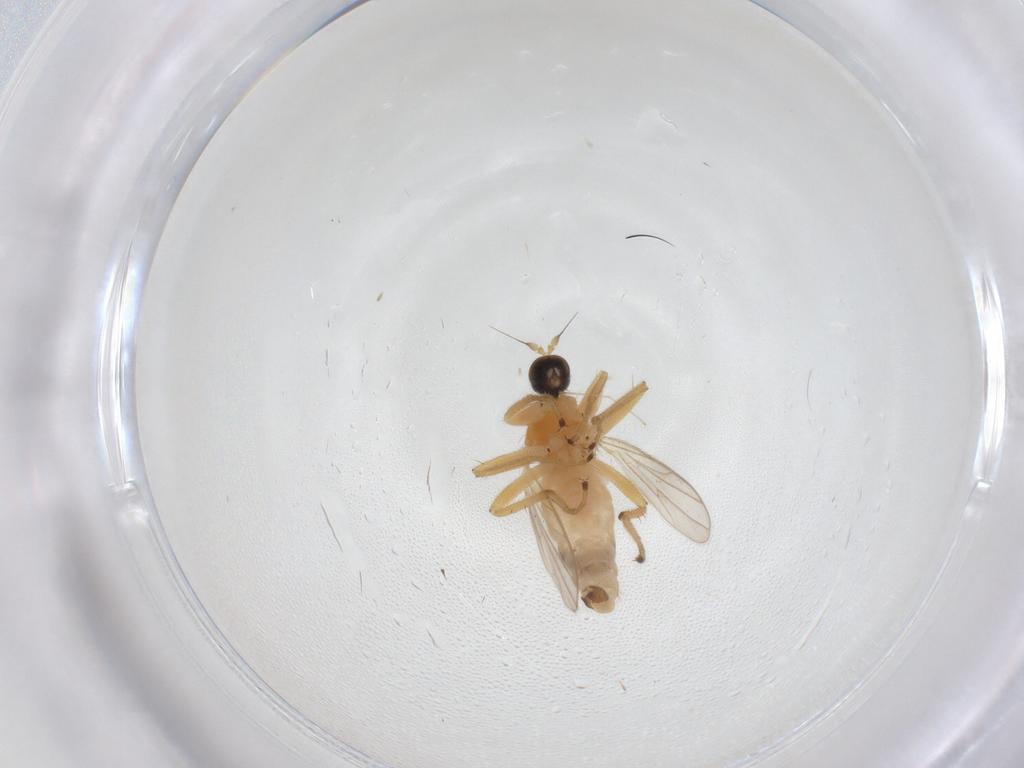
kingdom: Animalia
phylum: Arthropoda
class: Insecta
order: Diptera
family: Hybotidae
